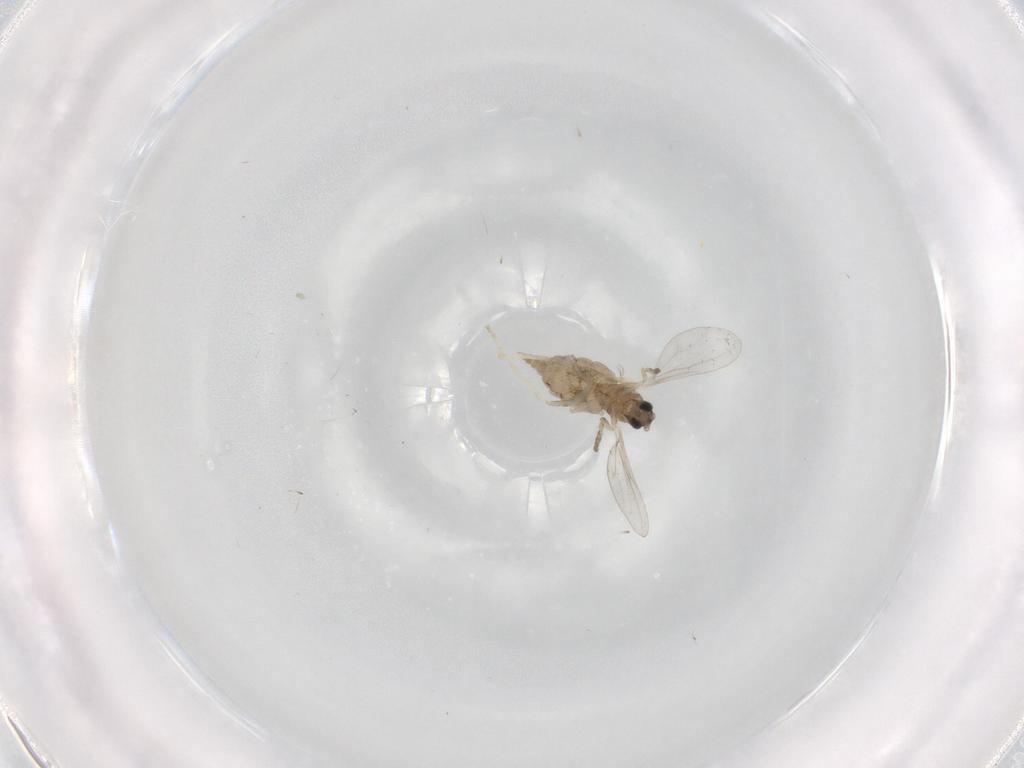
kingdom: Animalia
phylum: Arthropoda
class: Insecta
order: Diptera
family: Cecidomyiidae
